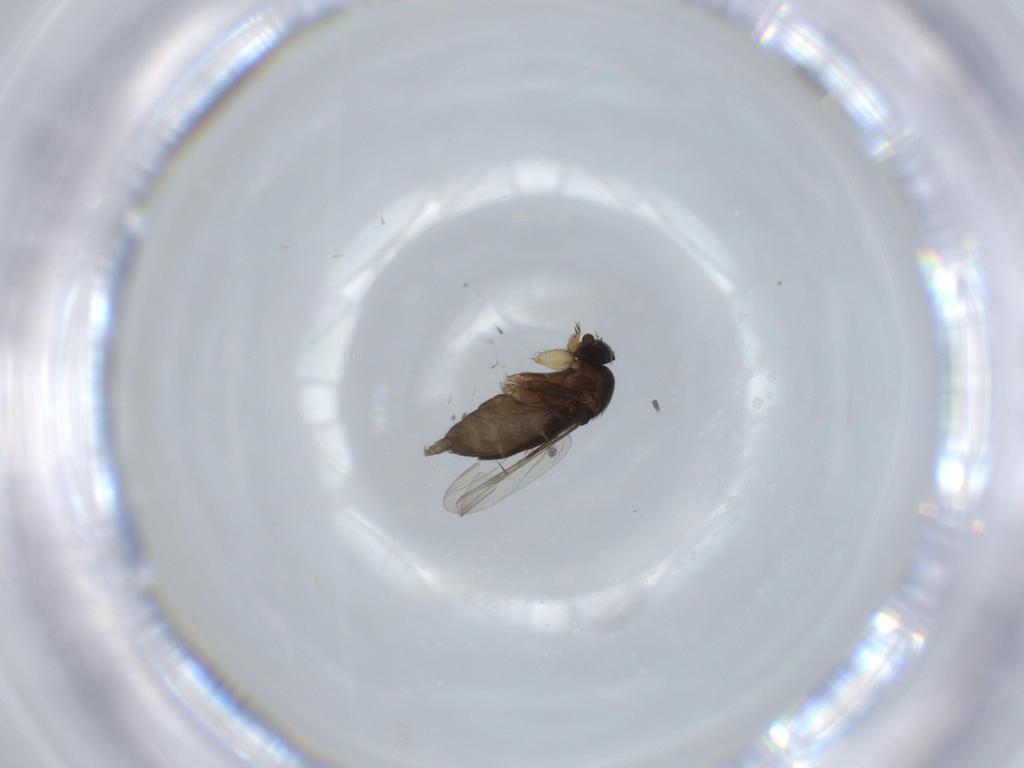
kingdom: Animalia
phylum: Arthropoda
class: Insecta
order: Diptera
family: Phoridae
